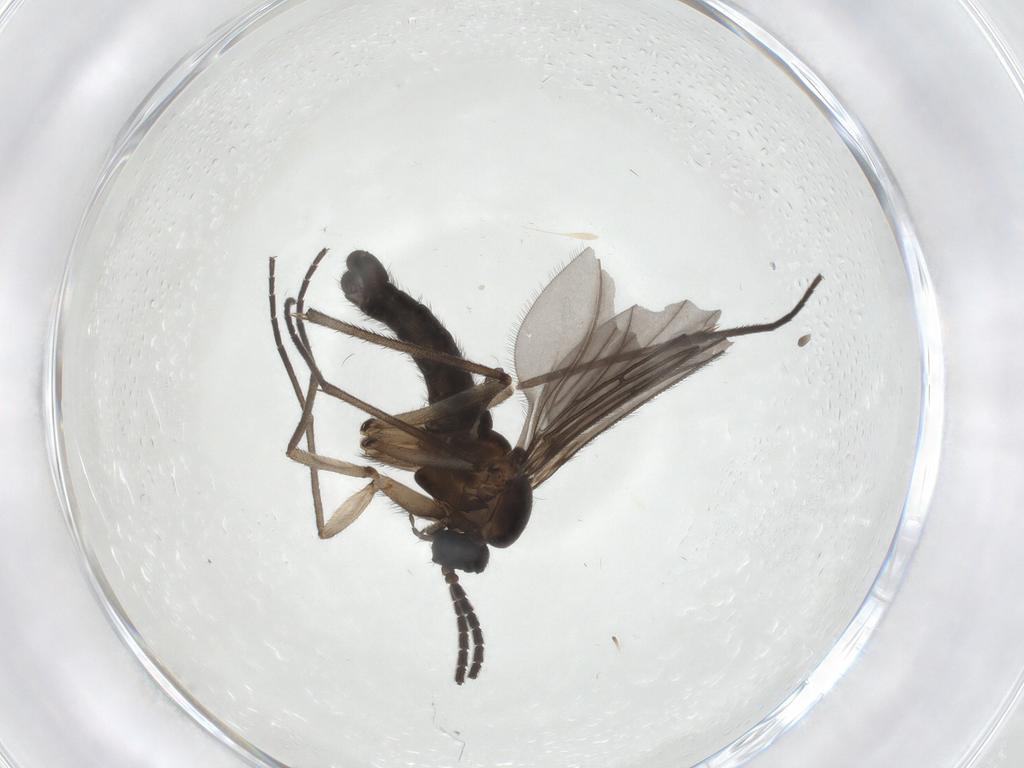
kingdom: Animalia
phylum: Arthropoda
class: Insecta
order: Diptera
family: Sciaridae
